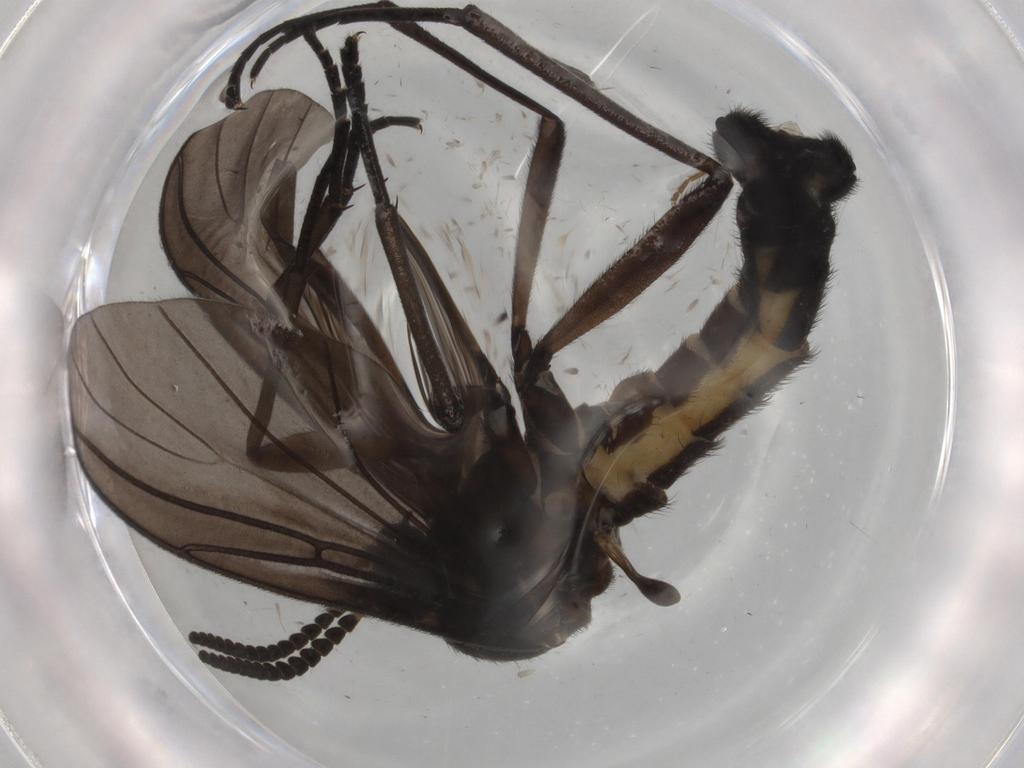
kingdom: Animalia
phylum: Arthropoda
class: Insecta
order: Diptera
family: Sciaridae
